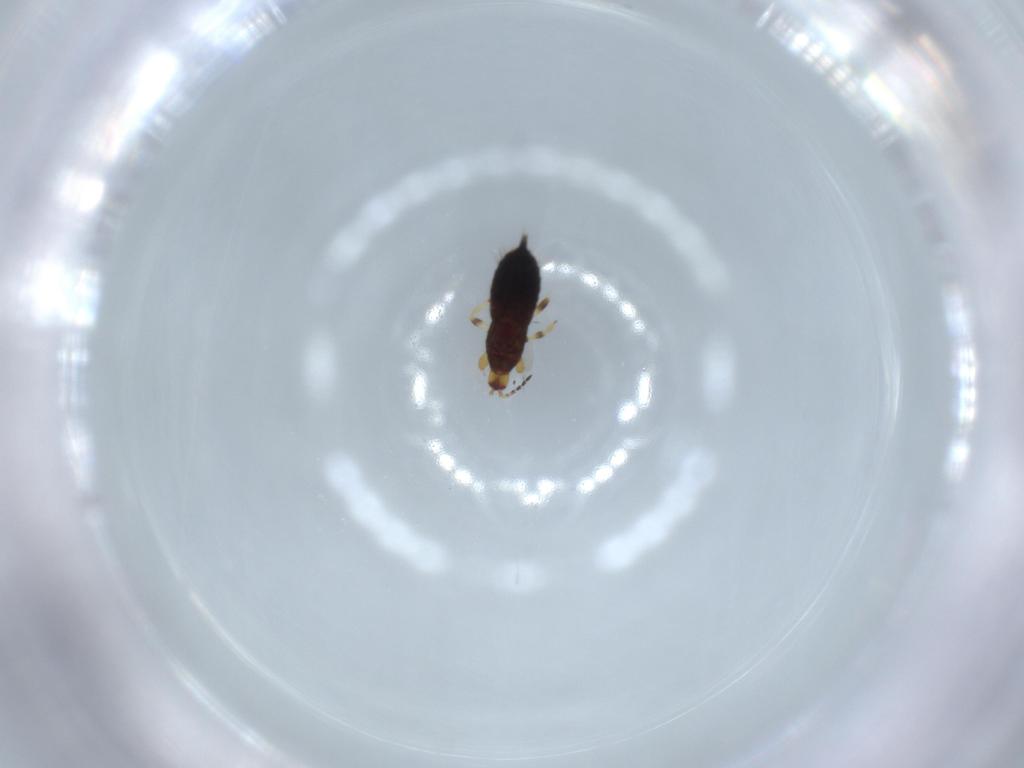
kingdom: Animalia
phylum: Arthropoda
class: Insecta
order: Thysanoptera
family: Phlaeothripidae
